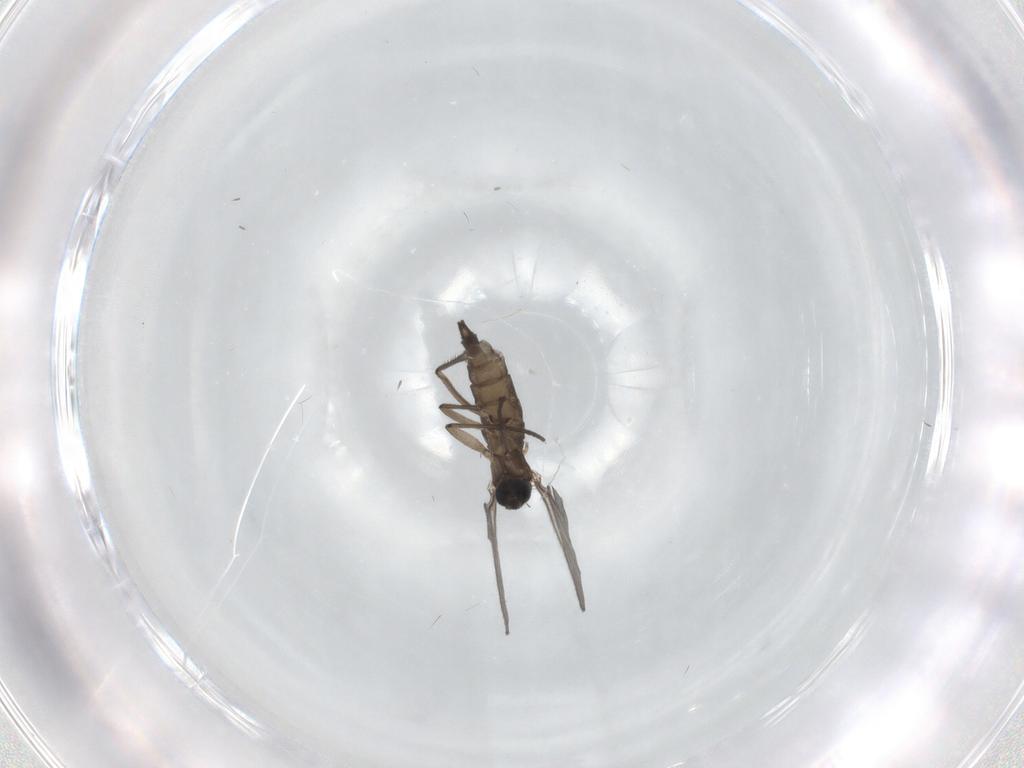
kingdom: Animalia
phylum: Arthropoda
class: Insecta
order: Diptera
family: Sciaridae
